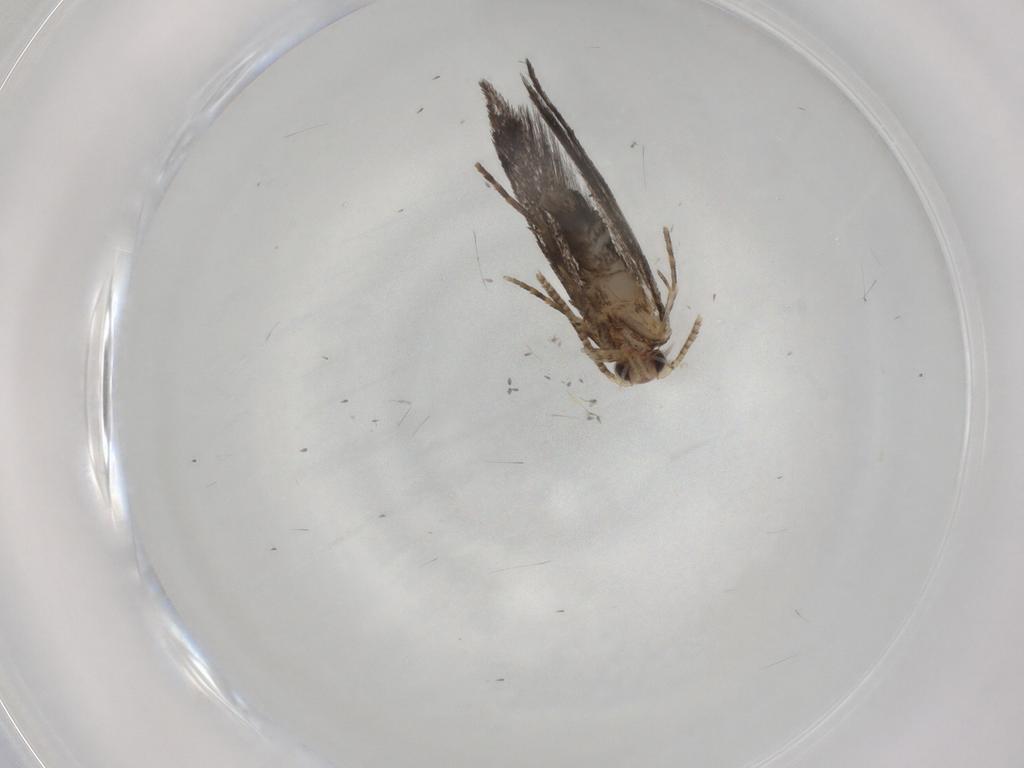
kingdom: Animalia
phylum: Arthropoda
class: Insecta
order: Lepidoptera
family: Tineidae
